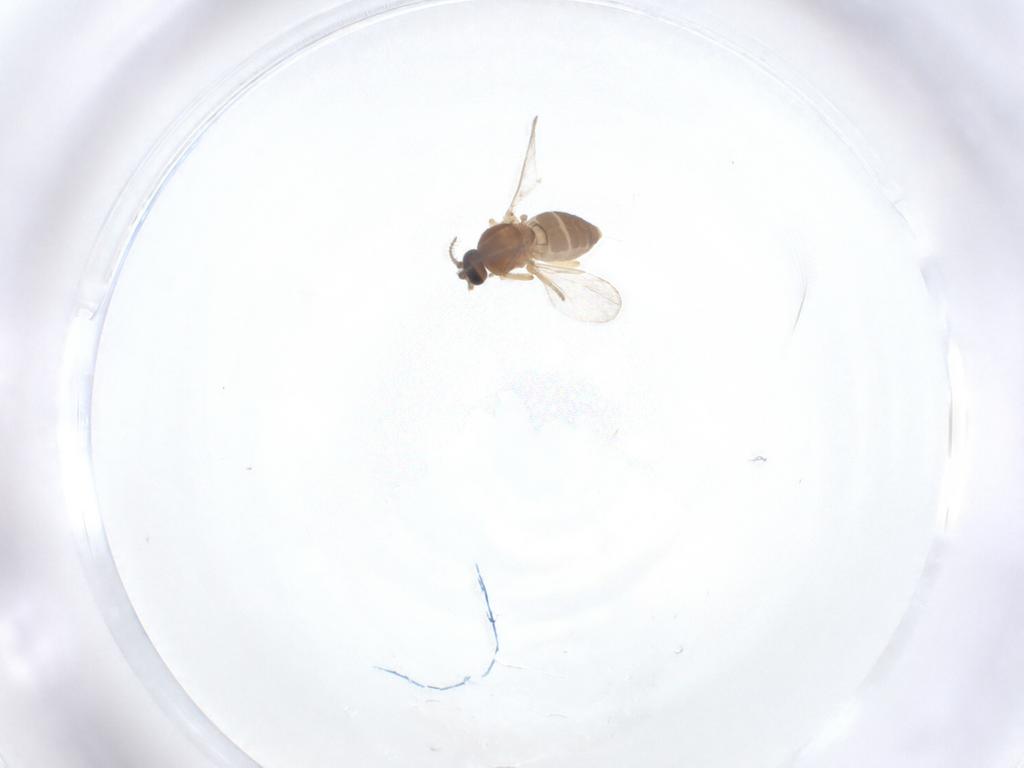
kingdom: Animalia
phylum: Arthropoda
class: Insecta
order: Diptera
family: Ceratopogonidae
